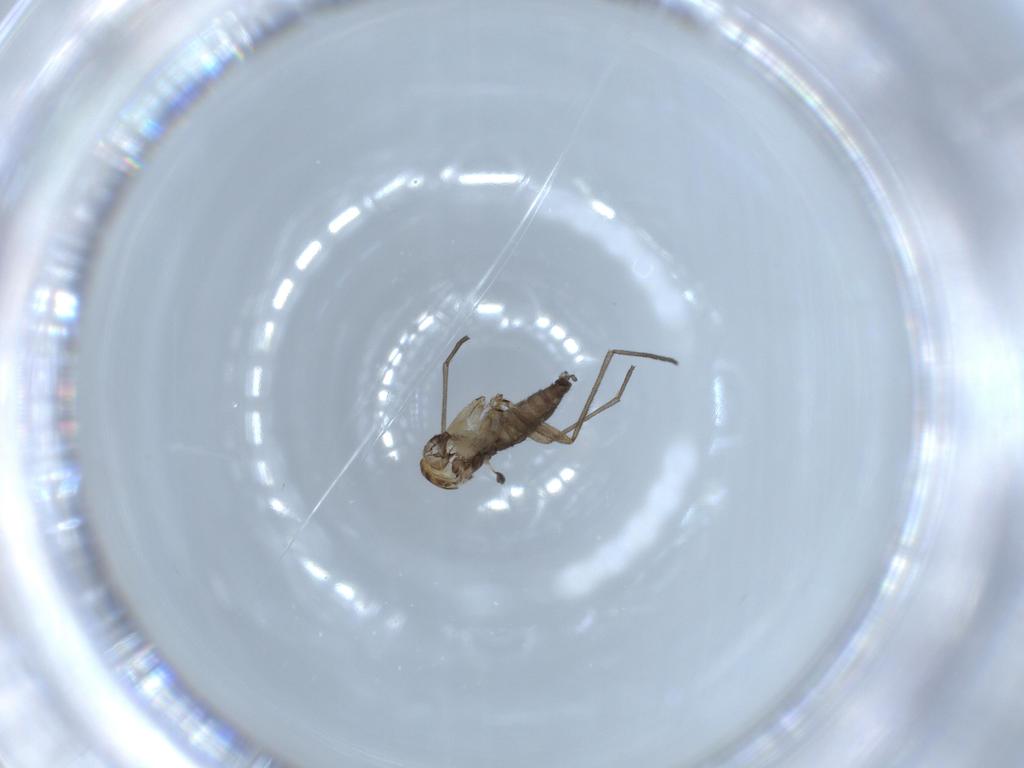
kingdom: Animalia
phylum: Arthropoda
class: Insecta
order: Diptera
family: Sciaridae
